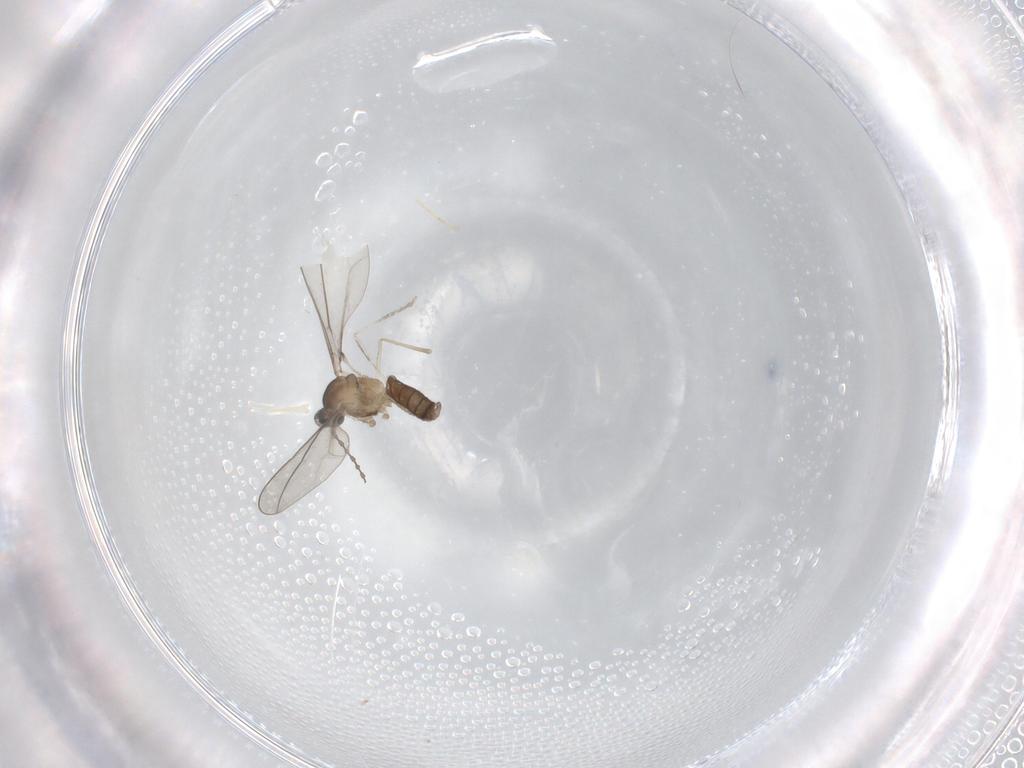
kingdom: Animalia
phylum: Arthropoda
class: Insecta
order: Diptera
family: Cecidomyiidae
